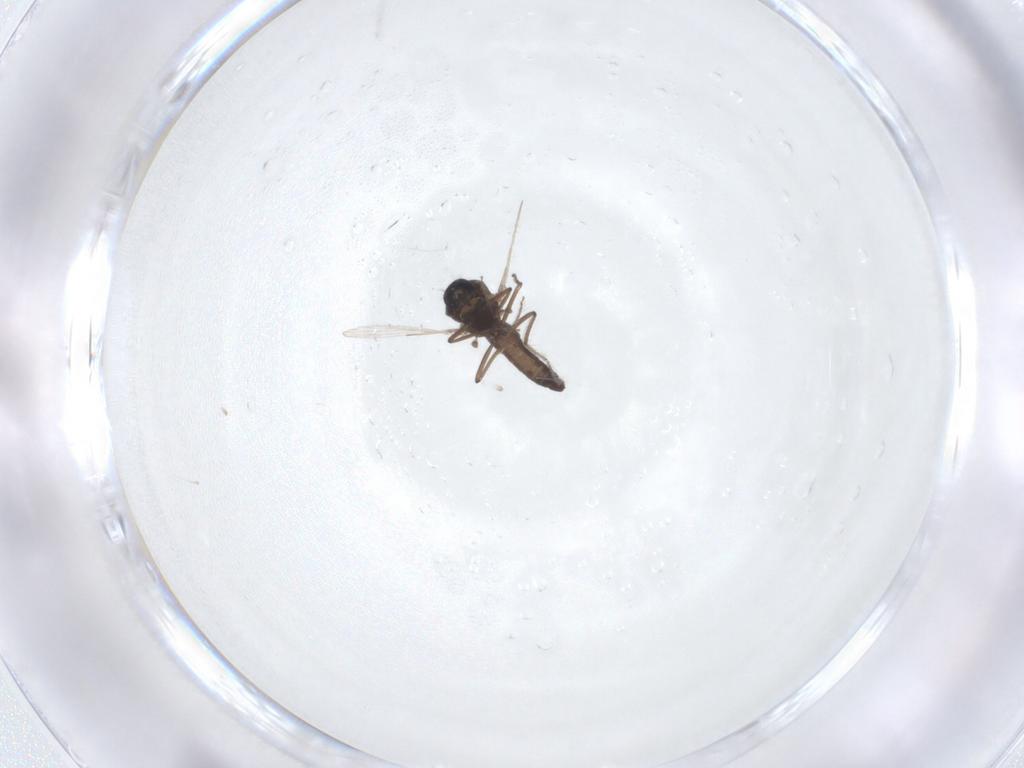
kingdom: Animalia
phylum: Arthropoda
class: Insecta
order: Diptera
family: Ceratopogonidae
